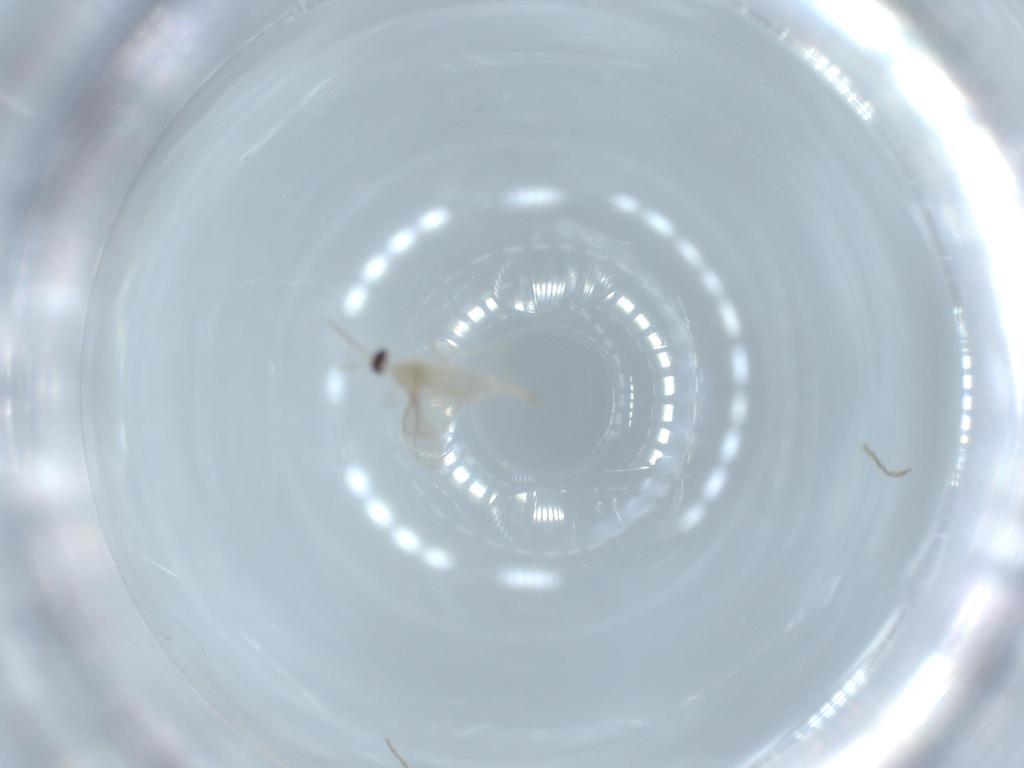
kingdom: Animalia
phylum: Arthropoda
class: Insecta
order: Diptera
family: Cecidomyiidae
